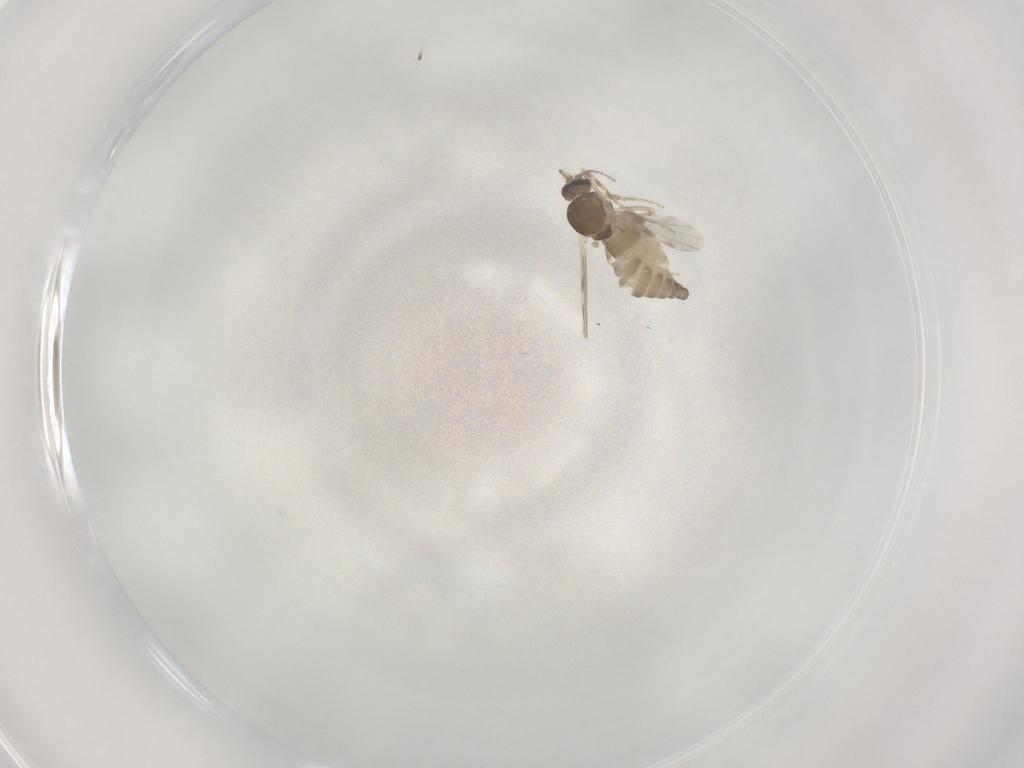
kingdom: Animalia
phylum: Arthropoda
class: Insecta
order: Diptera
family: Ceratopogonidae
